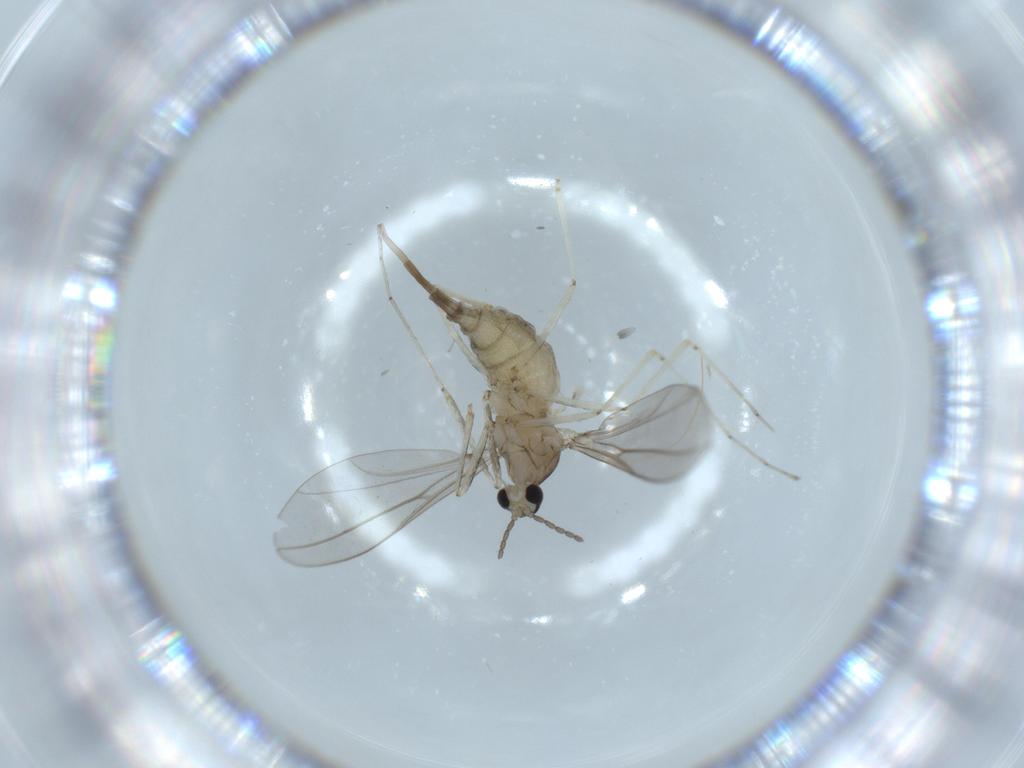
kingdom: Animalia
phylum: Arthropoda
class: Insecta
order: Diptera
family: Cecidomyiidae
